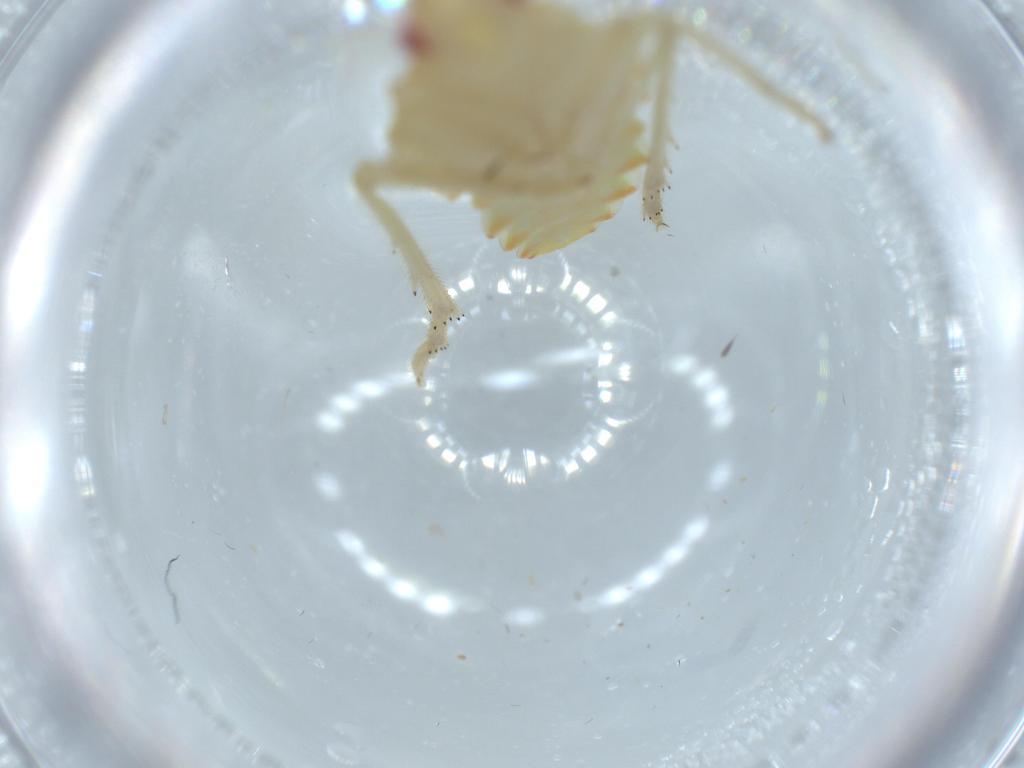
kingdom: Animalia
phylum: Arthropoda
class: Insecta
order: Hemiptera
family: Tropiduchidae
